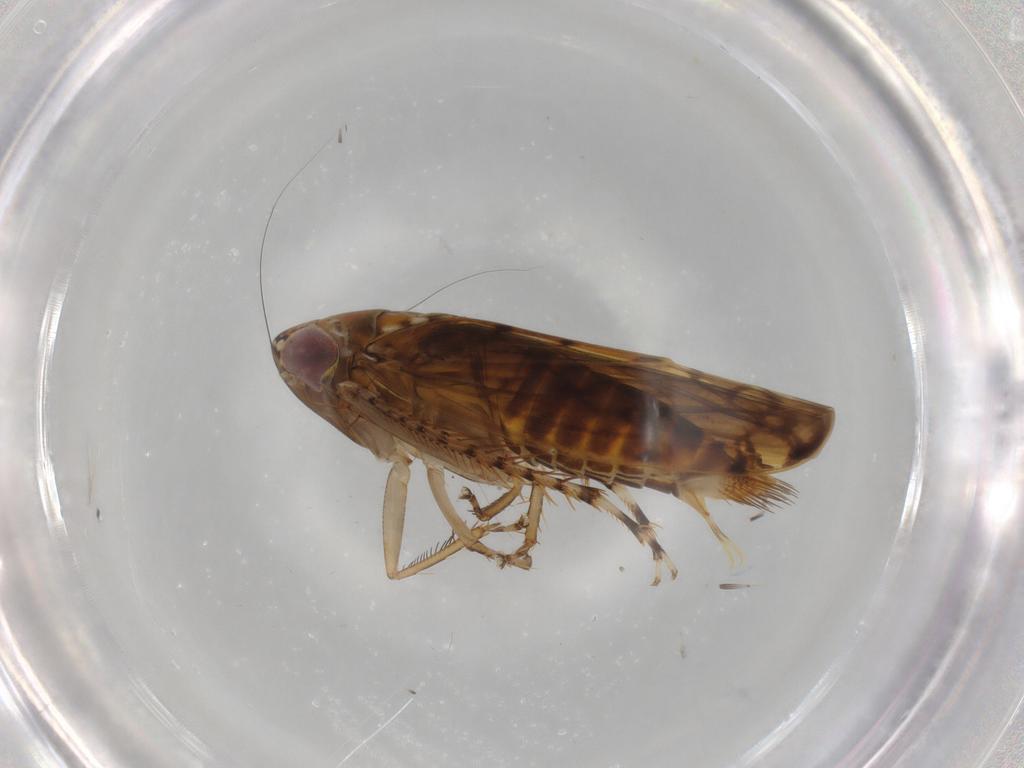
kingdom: Animalia
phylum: Arthropoda
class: Insecta
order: Hemiptera
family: Cicadellidae
